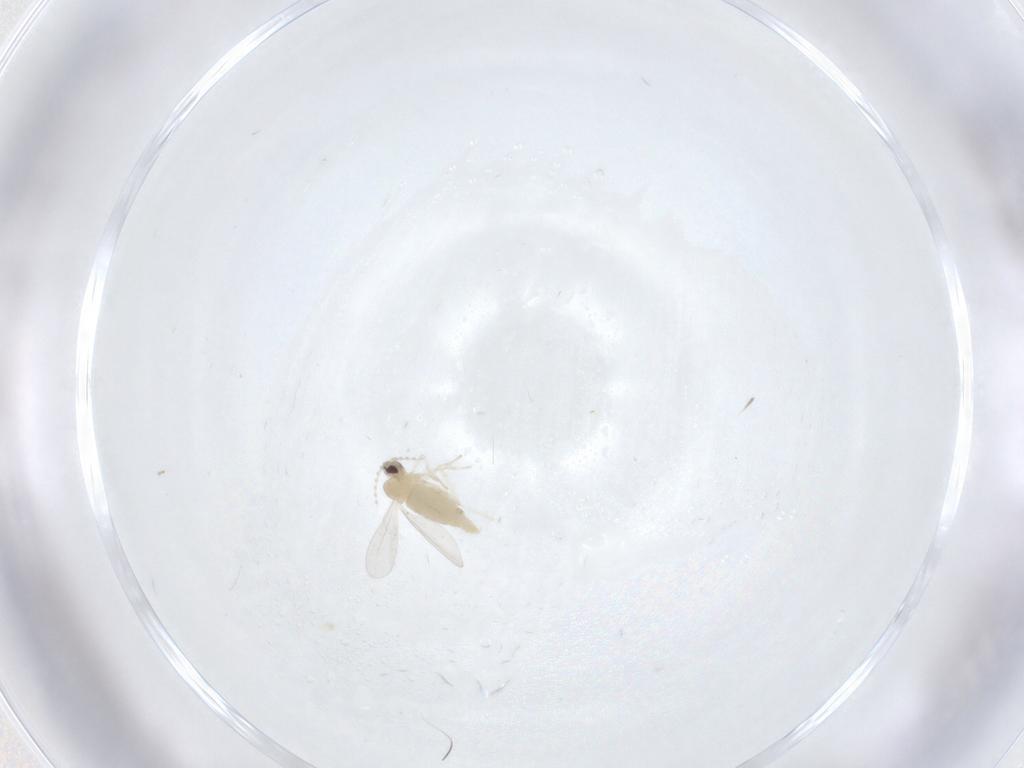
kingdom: Animalia
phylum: Arthropoda
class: Insecta
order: Diptera
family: Cecidomyiidae
